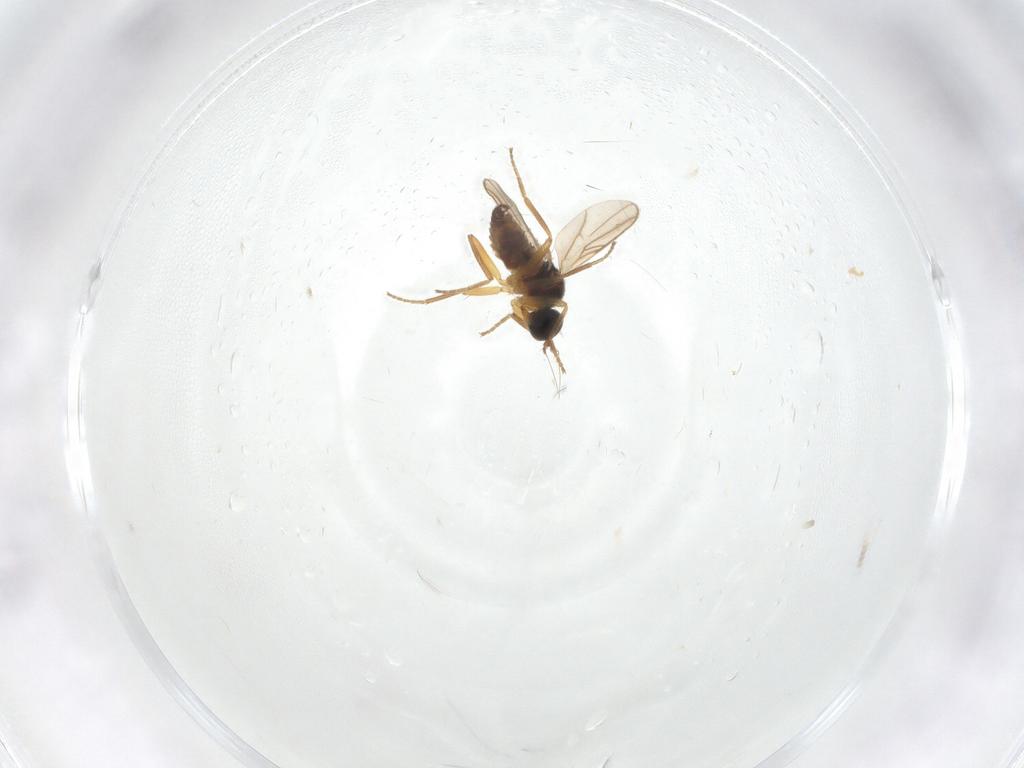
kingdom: Animalia
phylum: Arthropoda
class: Insecta
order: Diptera
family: Hybotidae
